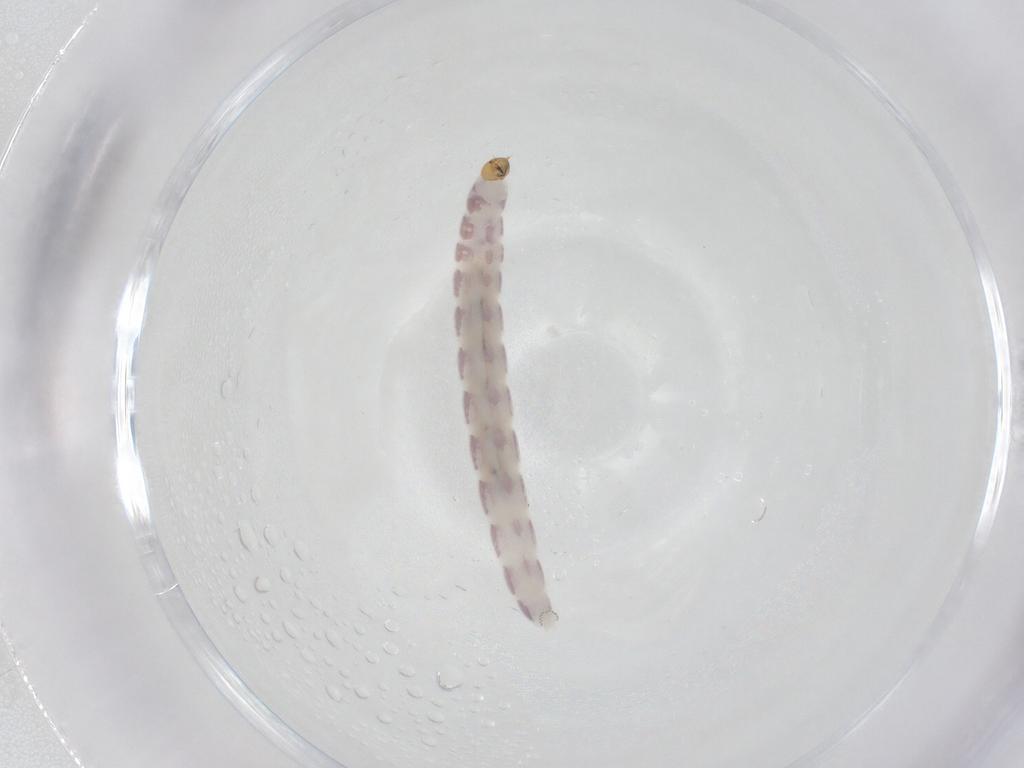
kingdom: Animalia
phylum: Arthropoda
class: Insecta
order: Diptera
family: Chironomidae
